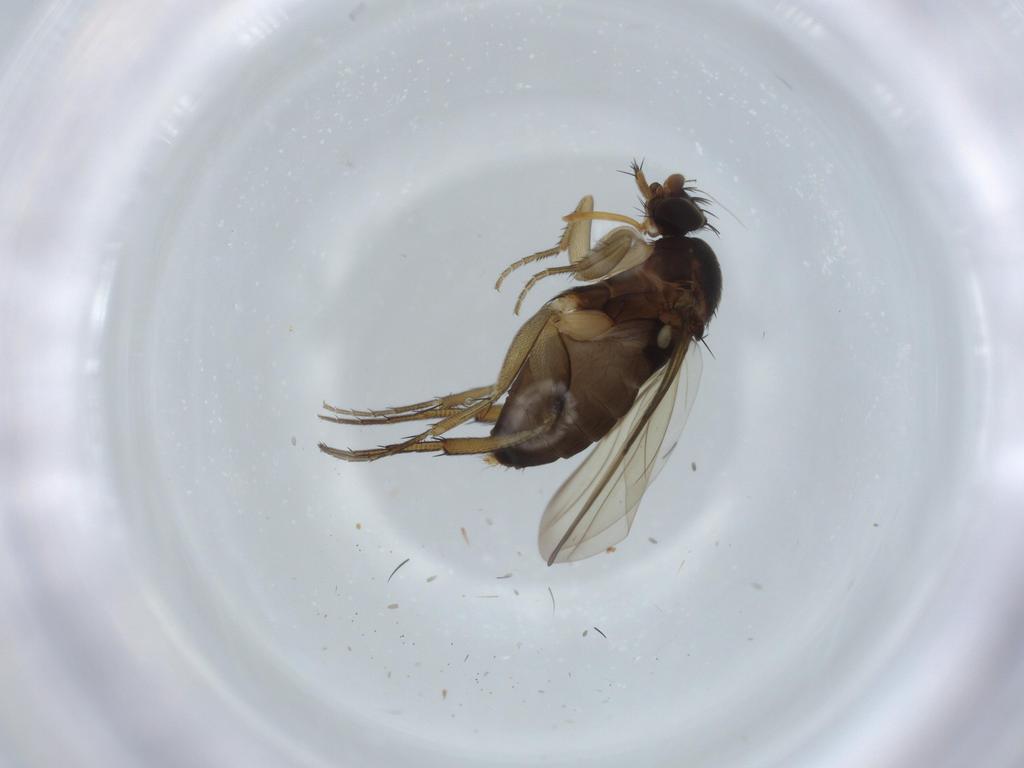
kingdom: Animalia
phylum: Arthropoda
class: Insecta
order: Diptera
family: Phoridae
